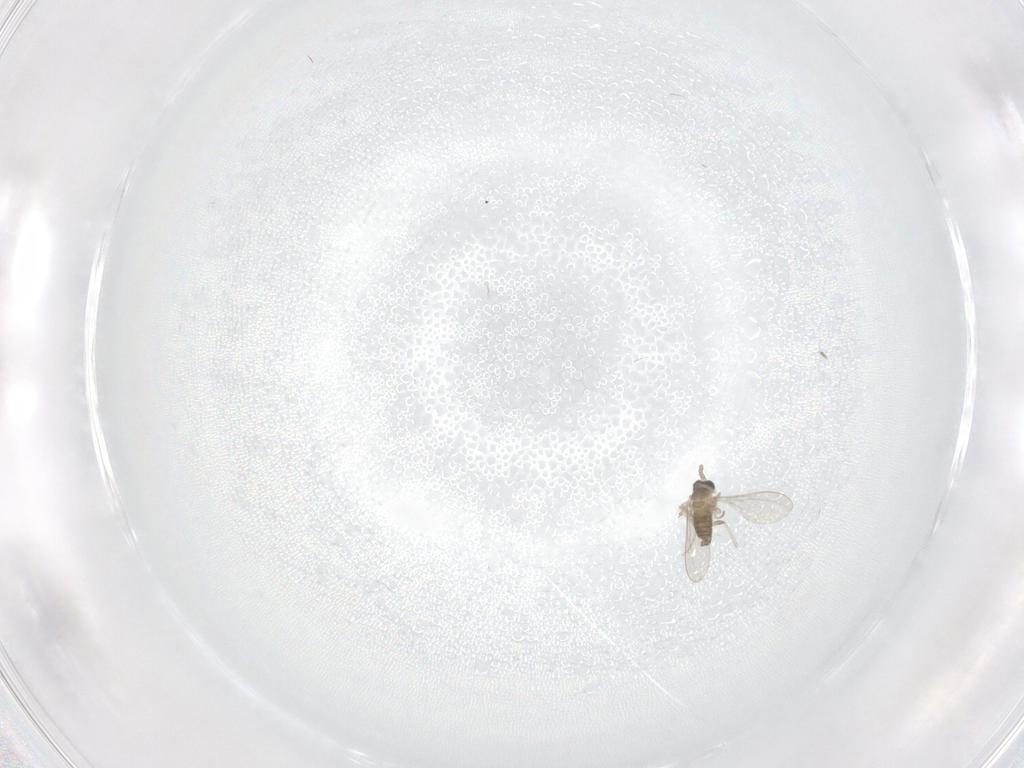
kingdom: Animalia
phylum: Arthropoda
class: Insecta
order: Diptera
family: Cecidomyiidae
